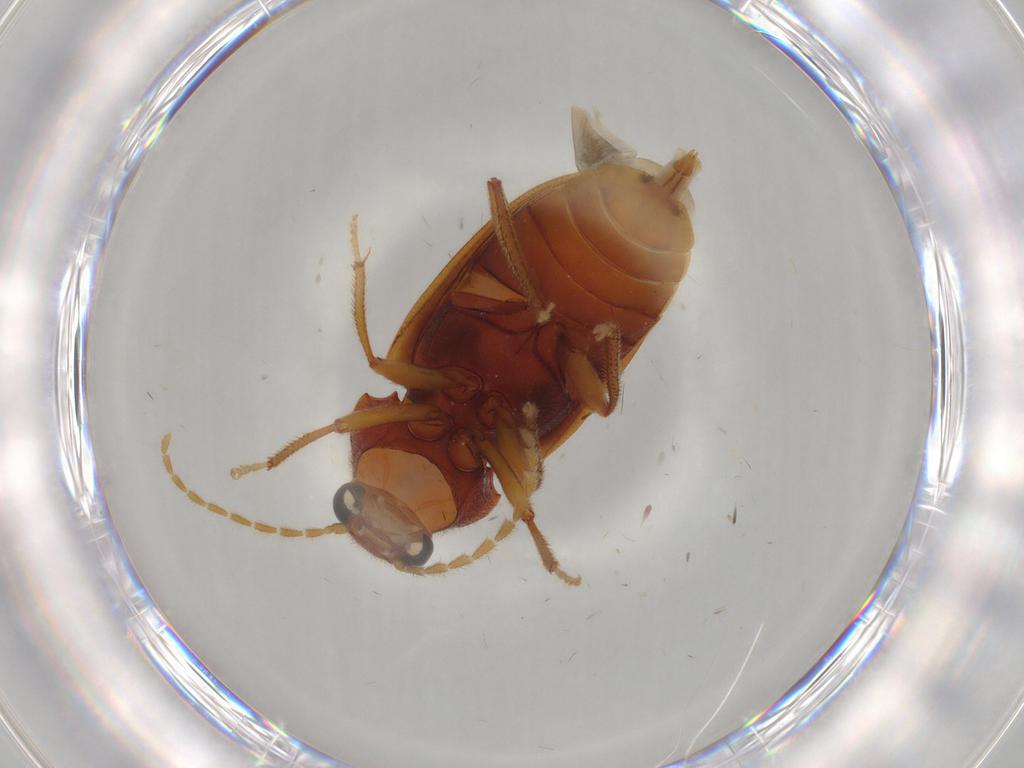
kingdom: Animalia
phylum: Arthropoda
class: Insecta
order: Coleoptera
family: Ptilodactylidae
